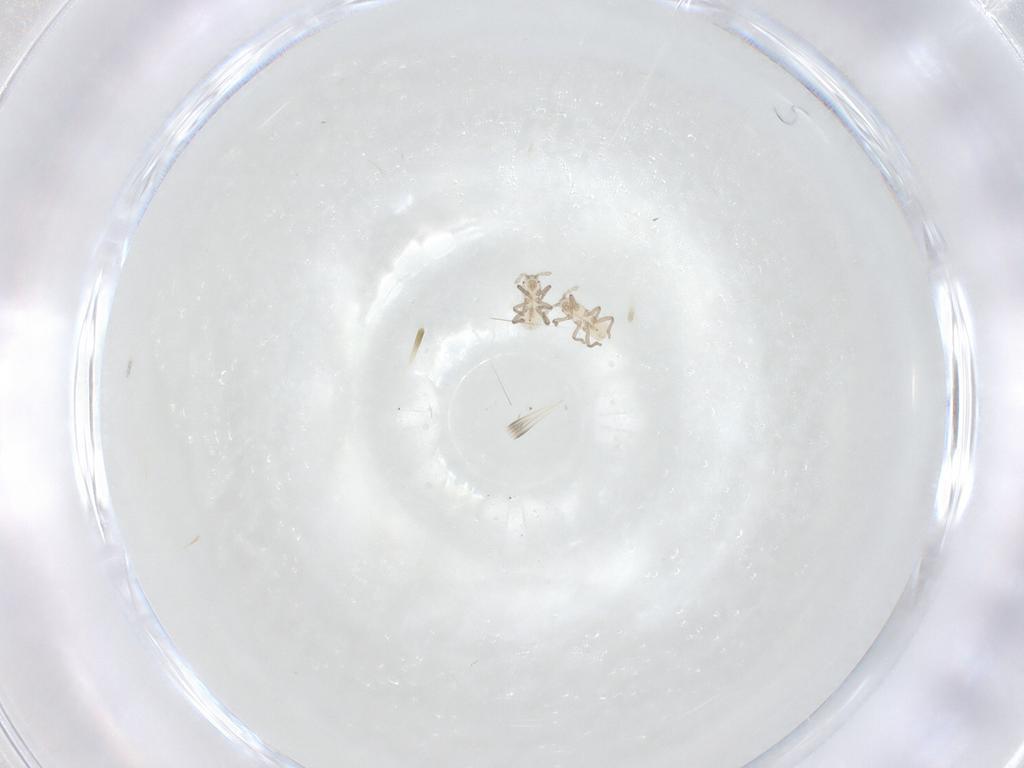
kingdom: Animalia
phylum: Arthropoda
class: Insecta
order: Hemiptera
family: Aphididae
